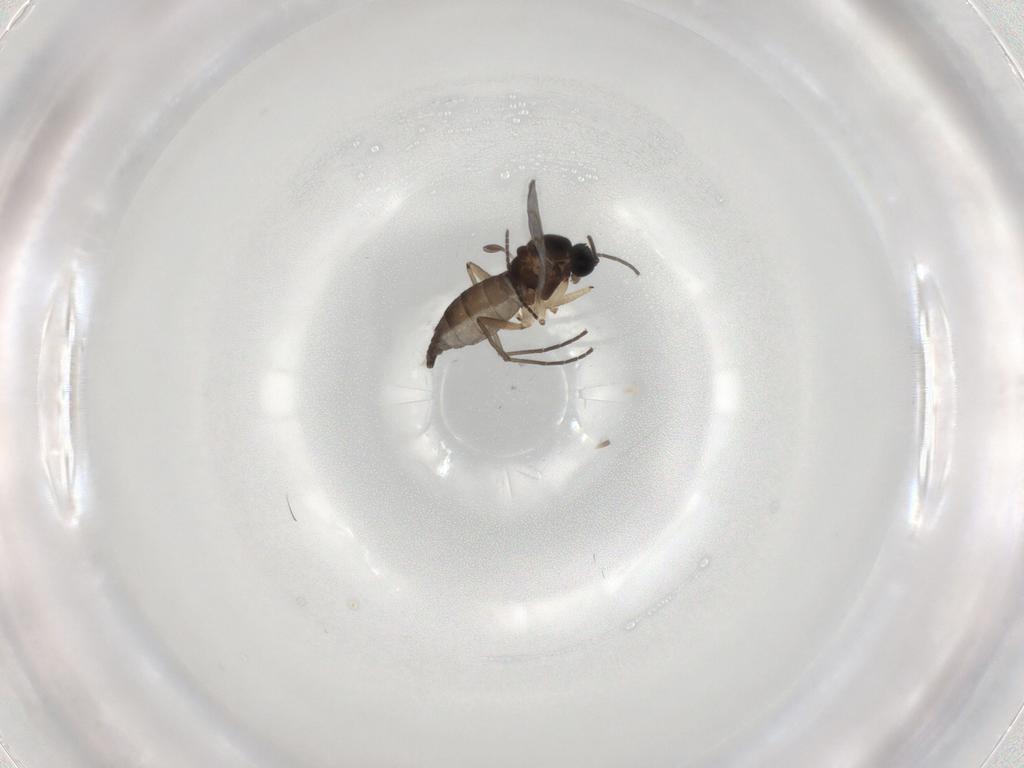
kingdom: Animalia
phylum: Arthropoda
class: Insecta
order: Diptera
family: Sciaridae
